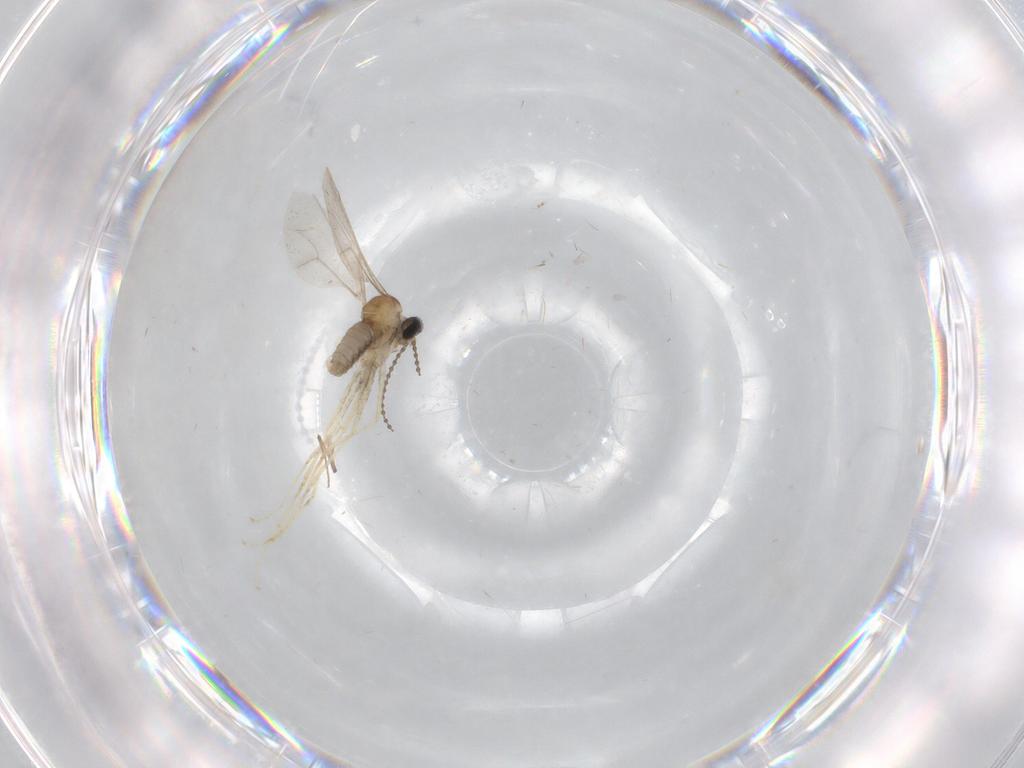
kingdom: Animalia
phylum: Arthropoda
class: Insecta
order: Diptera
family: Cecidomyiidae
